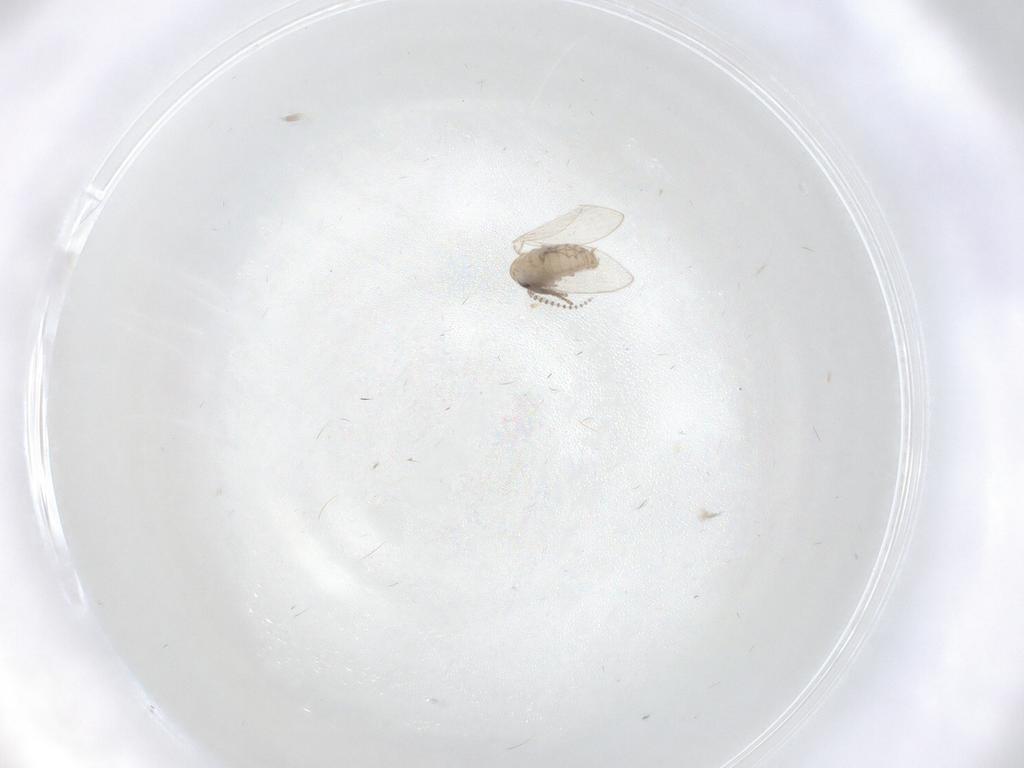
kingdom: Animalia
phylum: Arthropoda
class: Insecta
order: Diptera
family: Psychodidae
